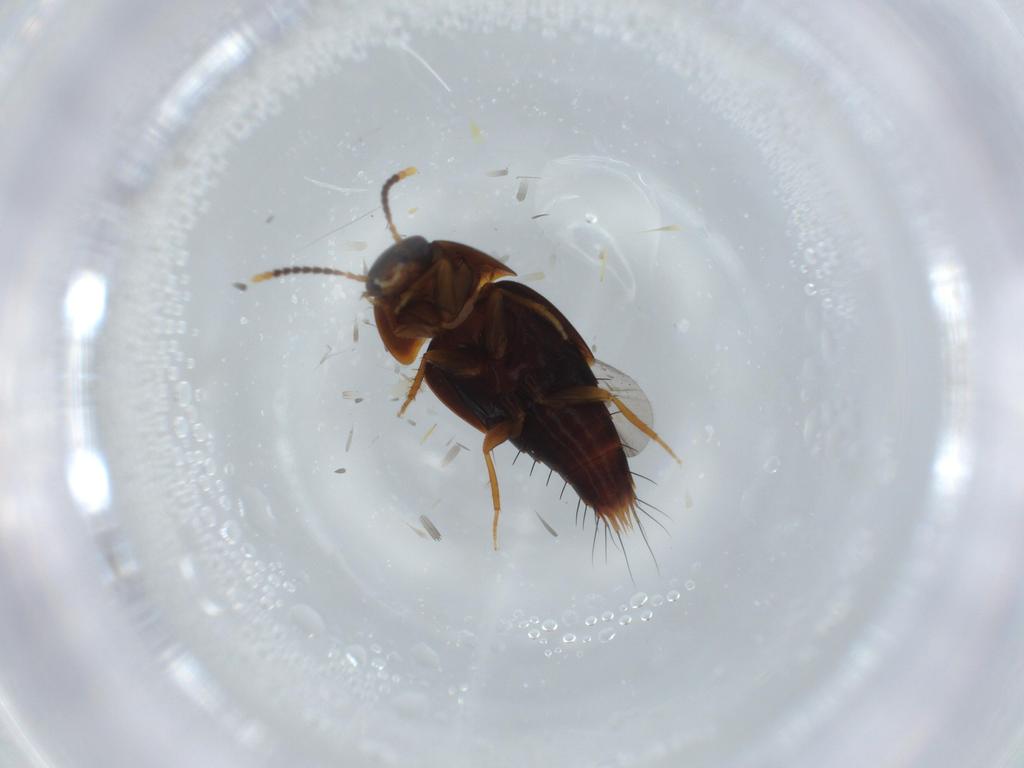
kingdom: Animalia
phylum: Arthropoda
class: Insecta
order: Coleoptera
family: Staphylinidae
